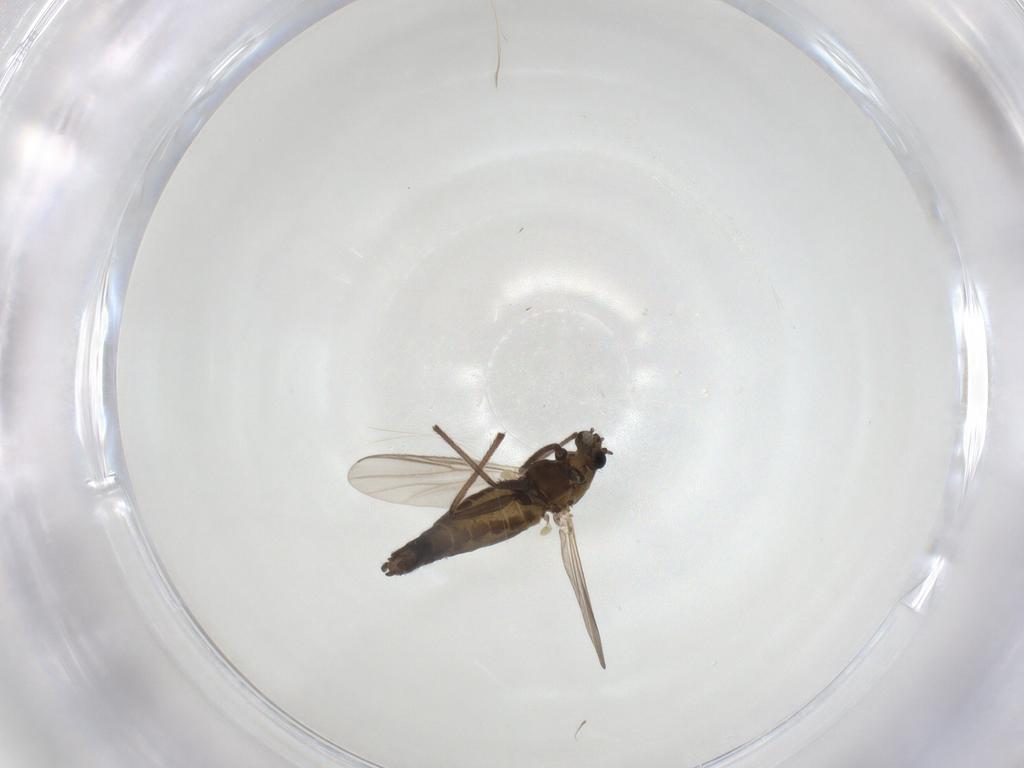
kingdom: Animalia
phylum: Arthropoda
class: Insecta
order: Diptera
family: Chironomidae
